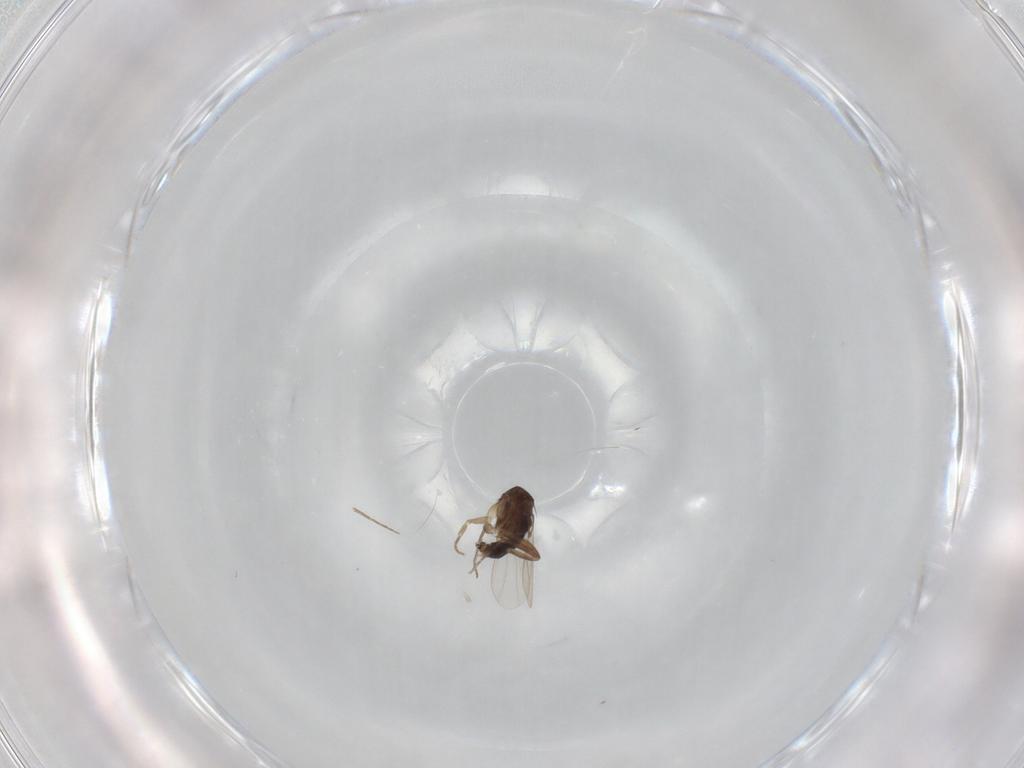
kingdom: Animalia
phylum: Arthropoda
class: Insecta
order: Diptera
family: Phoridae
